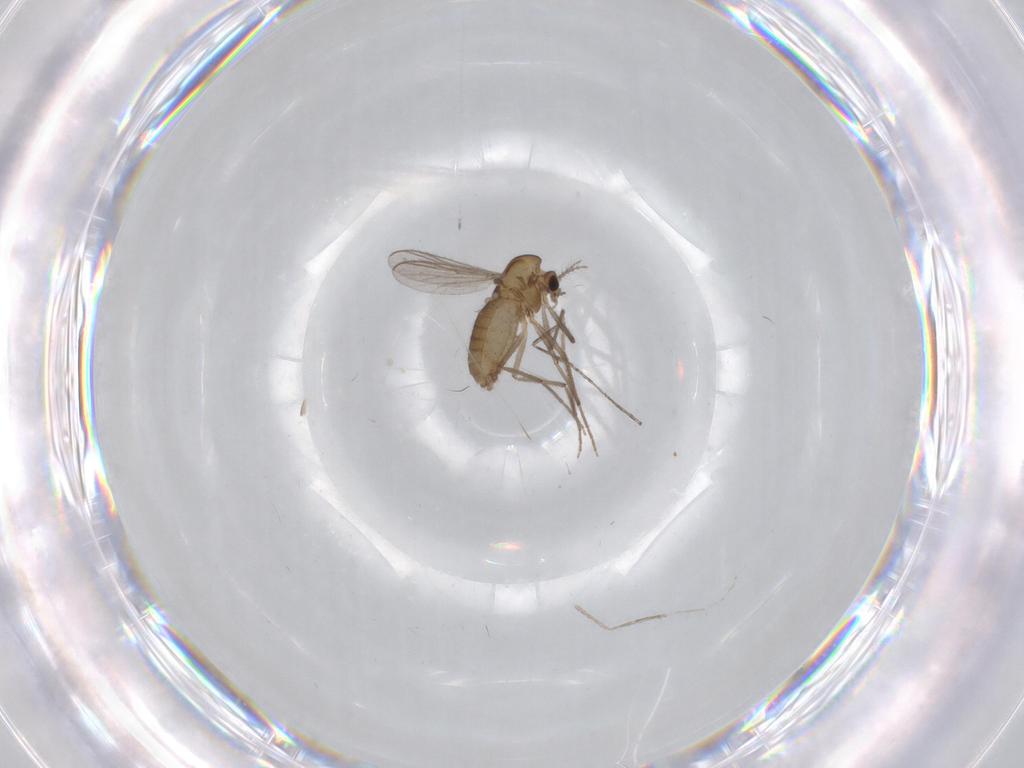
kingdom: Animalia
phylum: Arthropoda
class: Insecta
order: Diptera
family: Chironomidae
